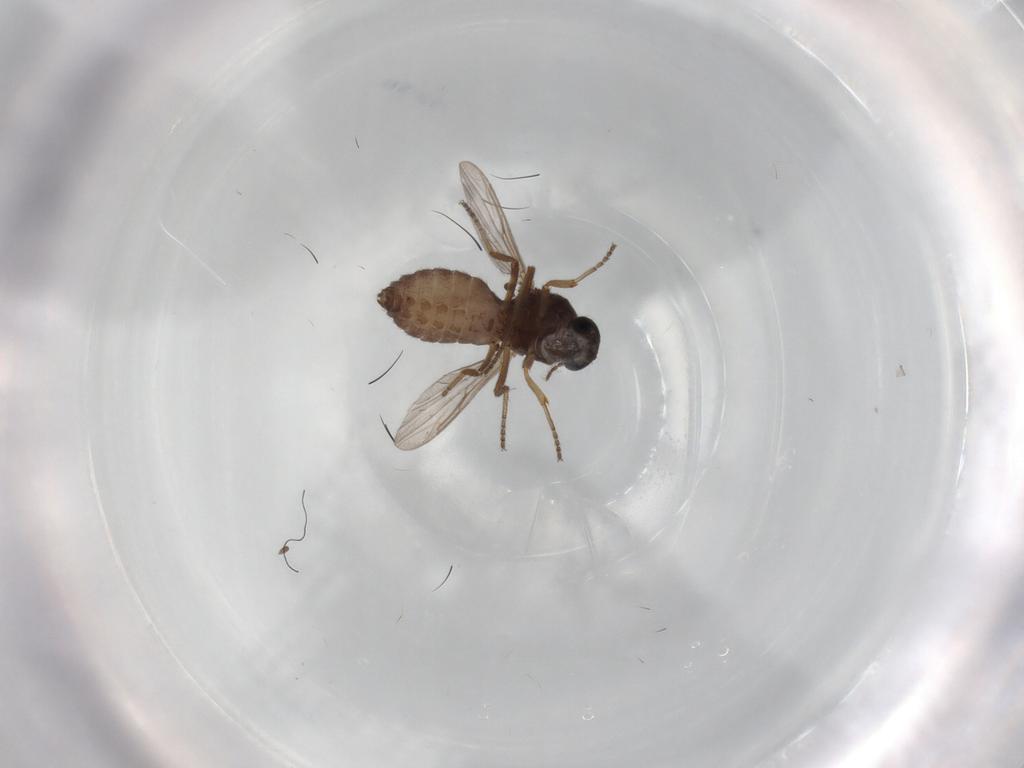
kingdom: Animalia
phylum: Arthropoda
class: Insecta
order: Diptera
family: Ceratopogonidae
